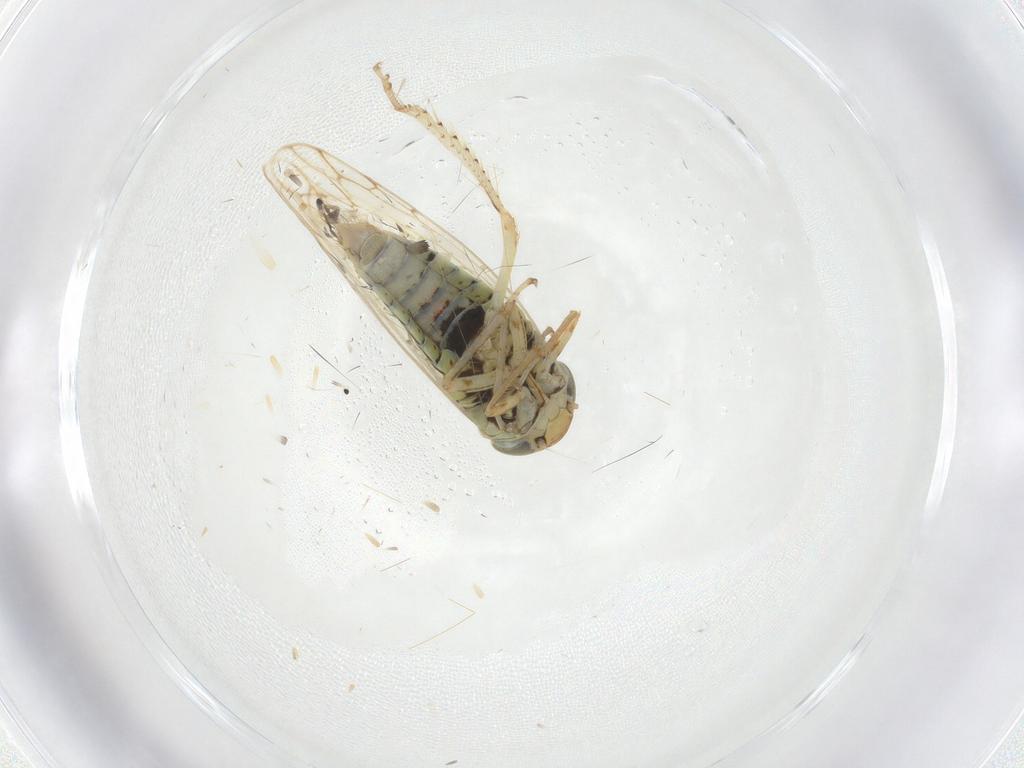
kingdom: Animalia
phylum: Arthropoda
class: Insecta
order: Hemiptera
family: Cicadellidae
